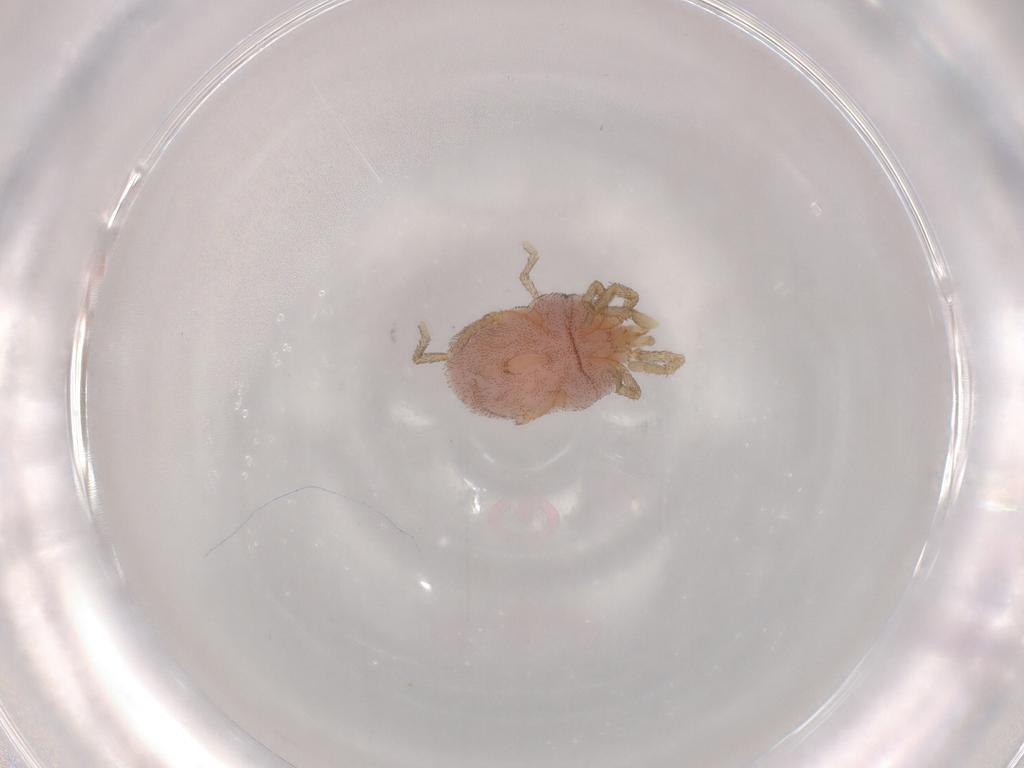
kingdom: Animalia
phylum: Arthropoda
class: Arachnida
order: Trombidiformes
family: Erythraeidae
